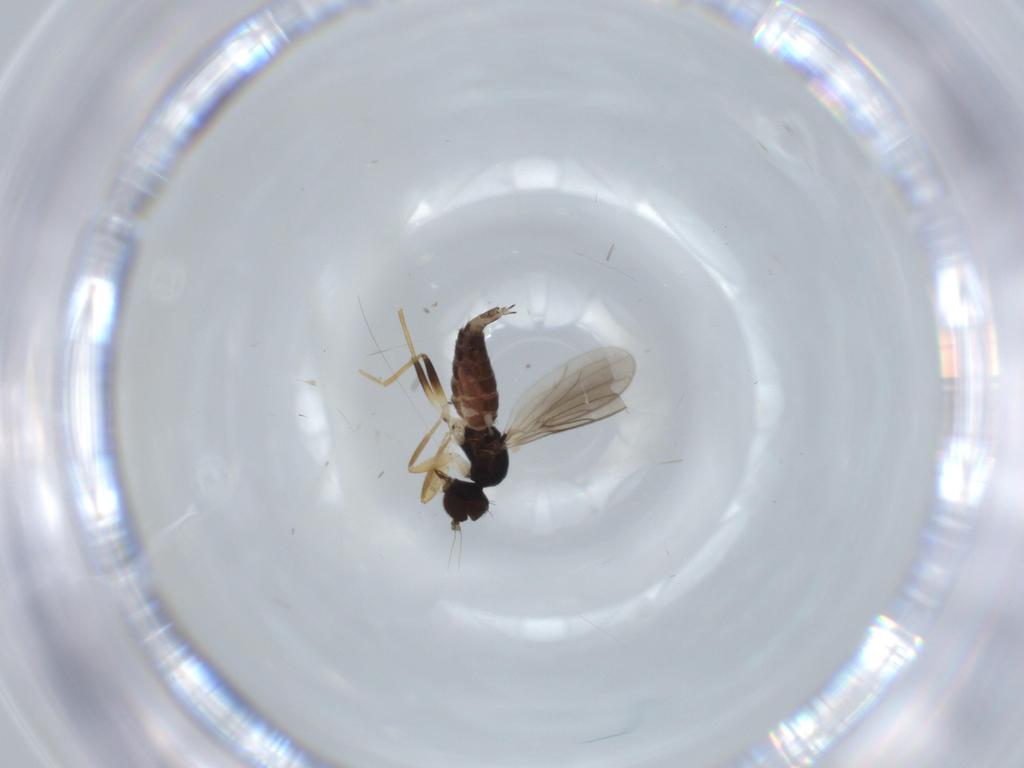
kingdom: Animalia
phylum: Arthropoda
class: Insecta
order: Diptera
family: Hybotidae
